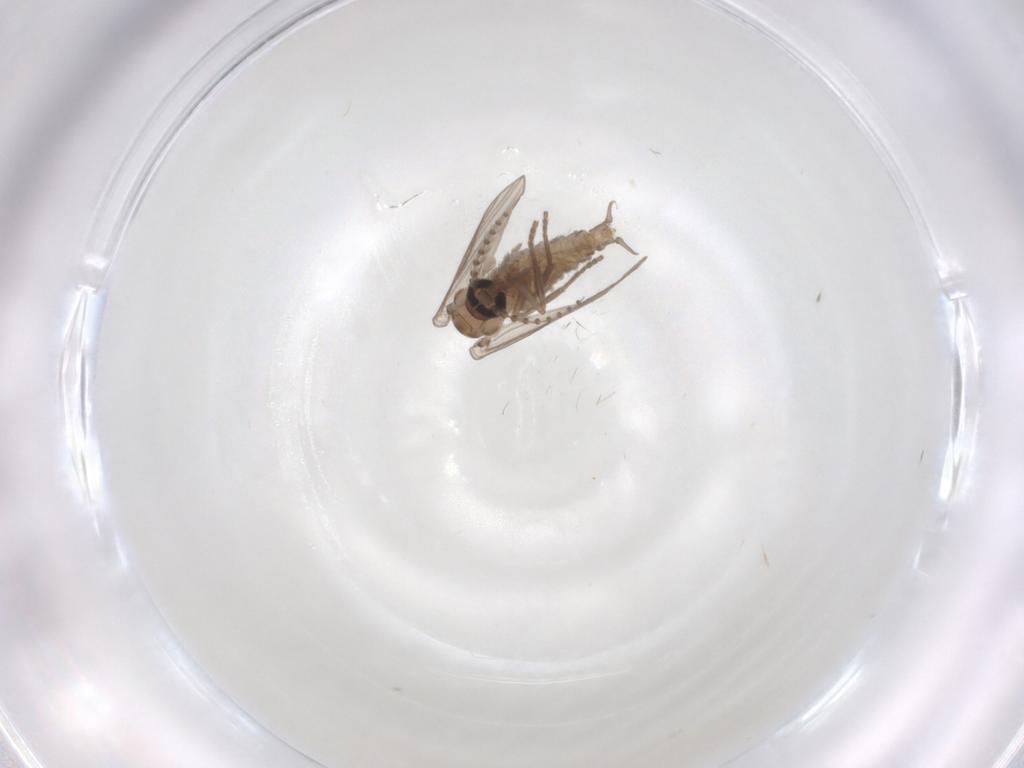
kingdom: Animalia
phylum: Arthropoda
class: Insecta
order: Diptera
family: Psychodidae
